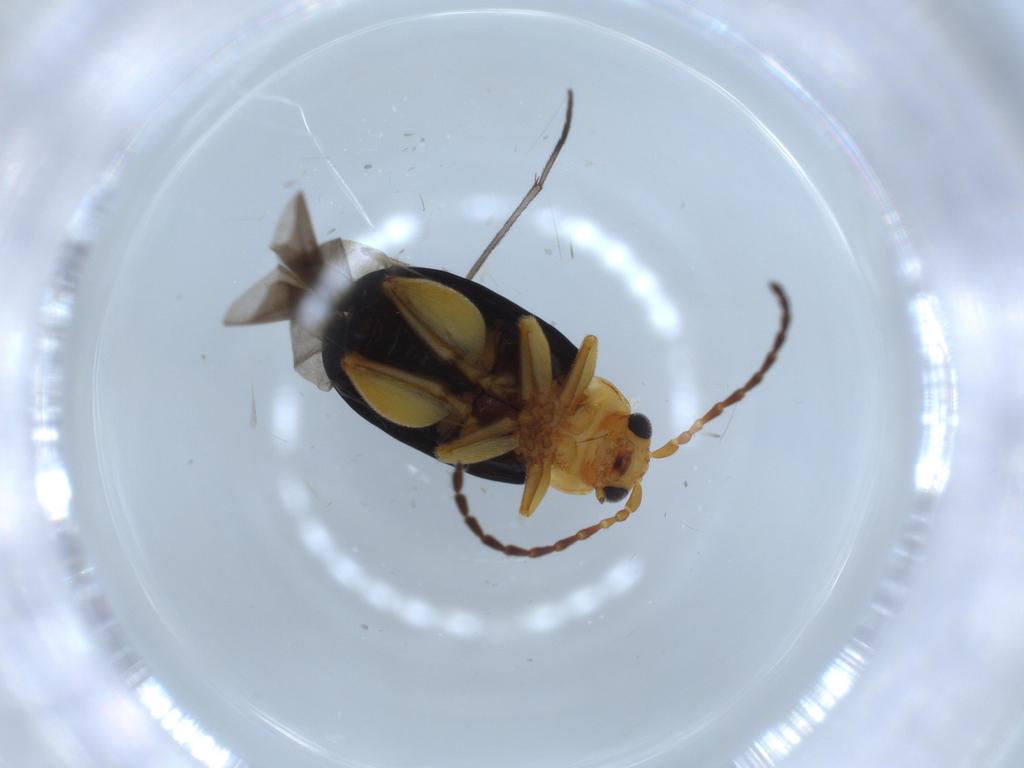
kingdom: Animalia
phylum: Arthropoda
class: Insecta
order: Coleoptera
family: Chrysomelidae
